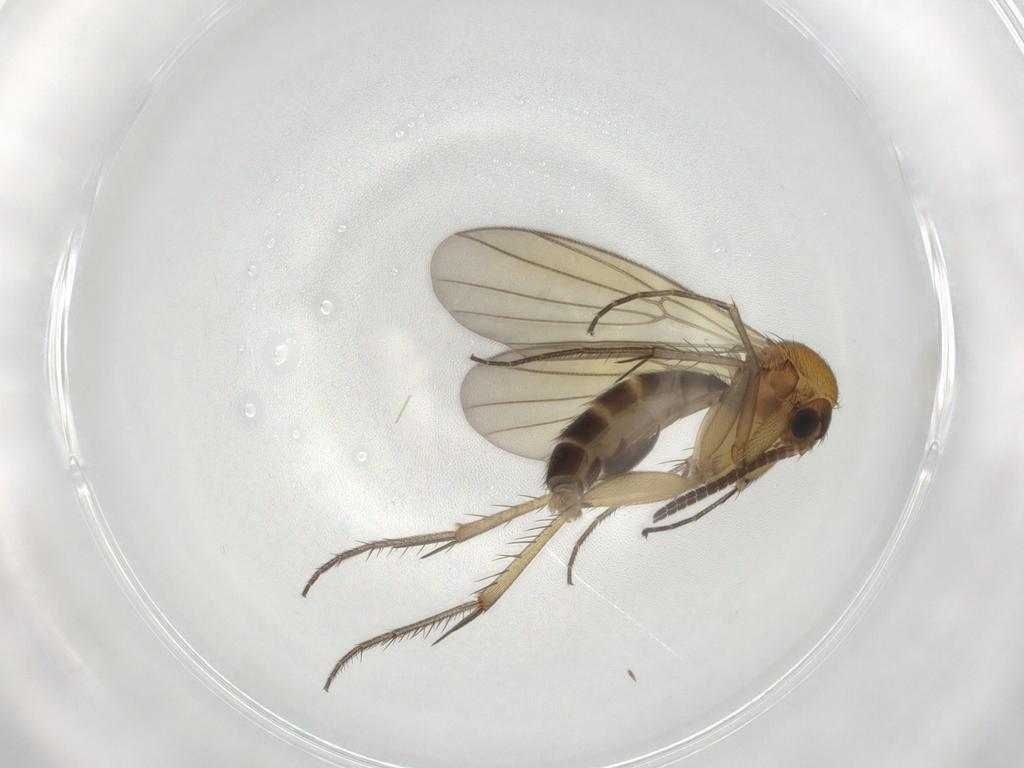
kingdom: Animalia
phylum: Arthropoda
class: Insecta
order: Diptera
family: Phoridae
